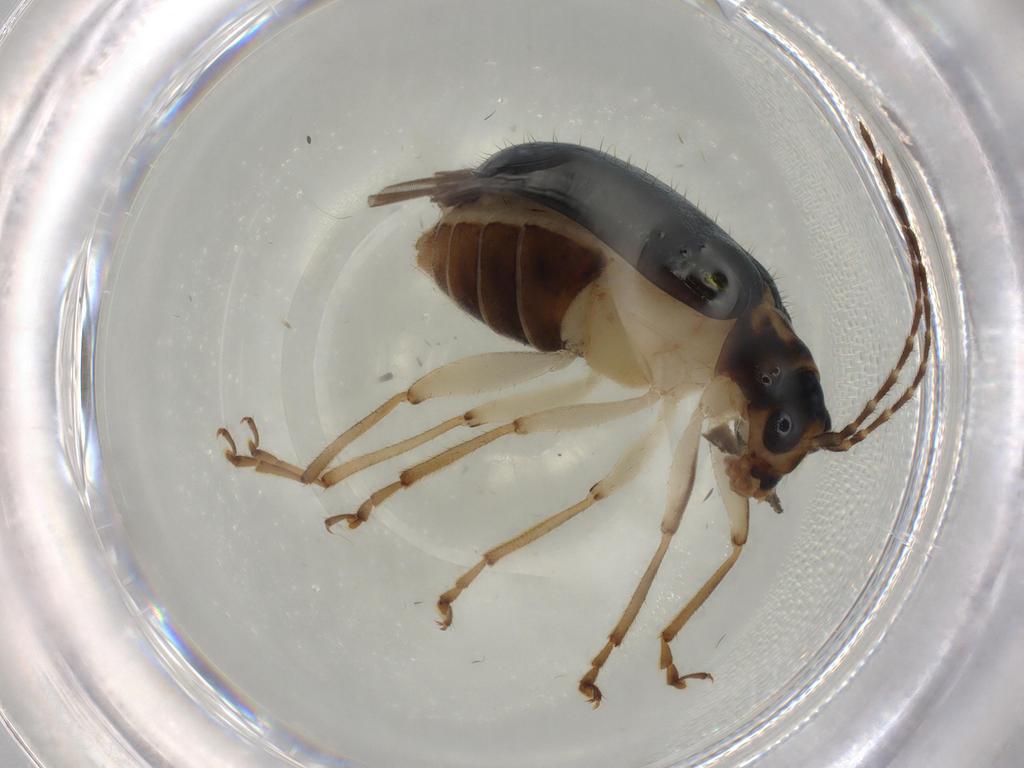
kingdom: Animalia
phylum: Arthropoda
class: Insecta
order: Coleoptera
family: Chrysomelidae
